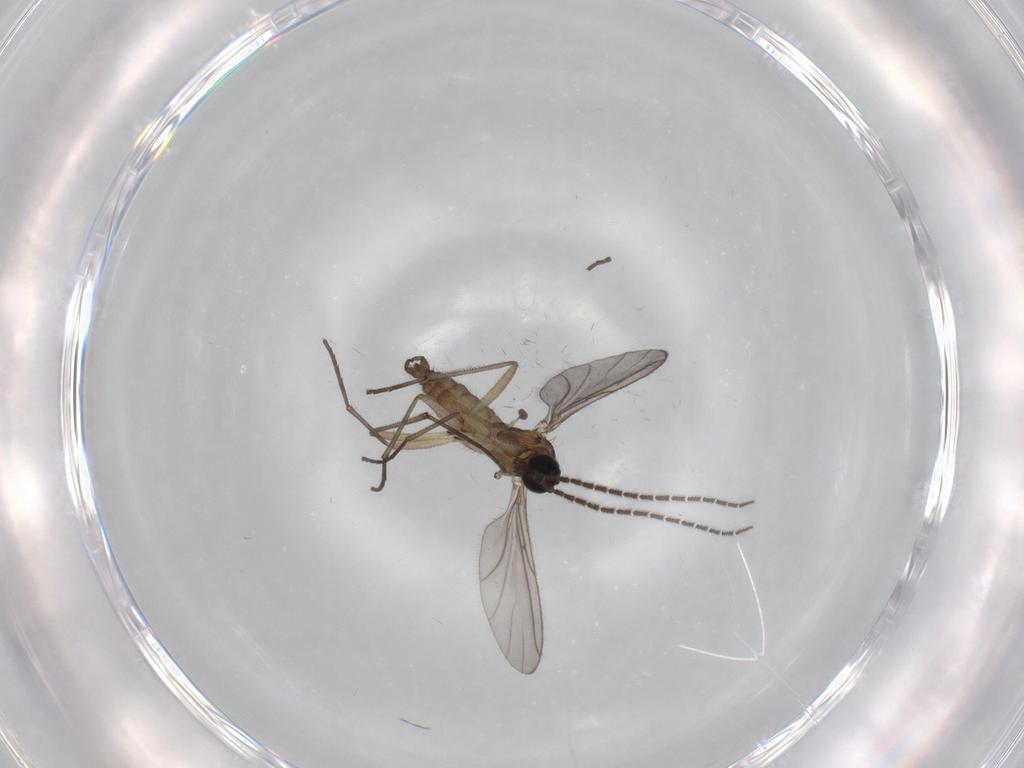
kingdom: Animalia
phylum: Arthropoda
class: Insecta
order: Diptera
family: Sciaridae
